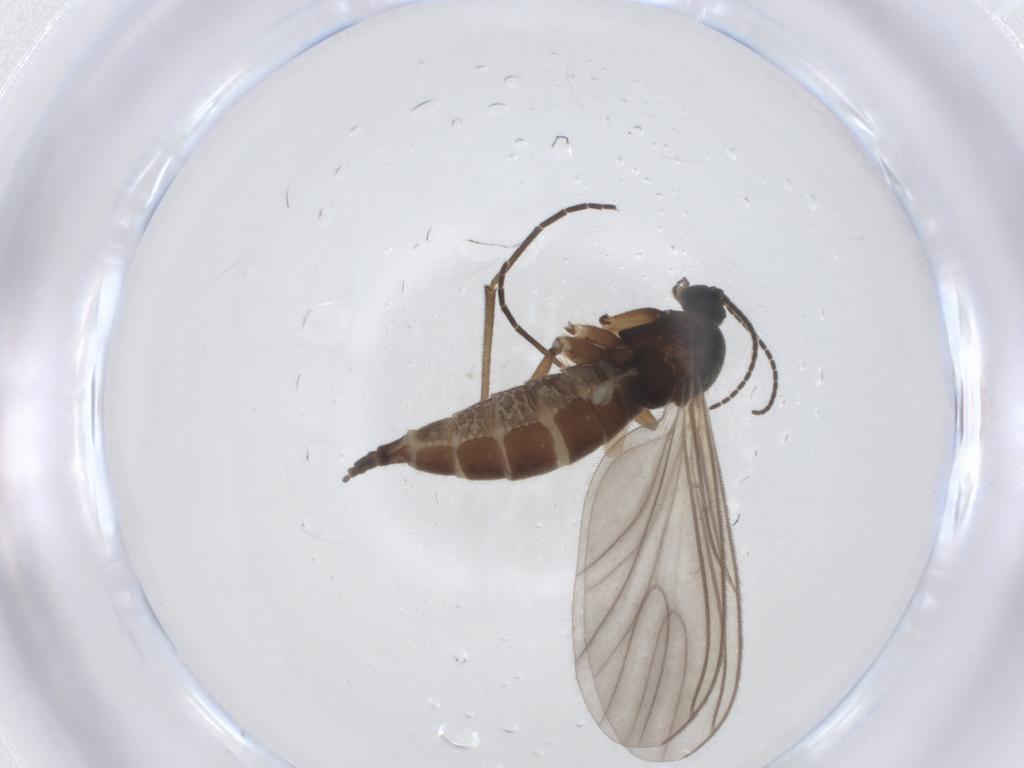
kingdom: Animalia
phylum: Arthropoda
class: Insecta
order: Diptera
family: Sciaridae
